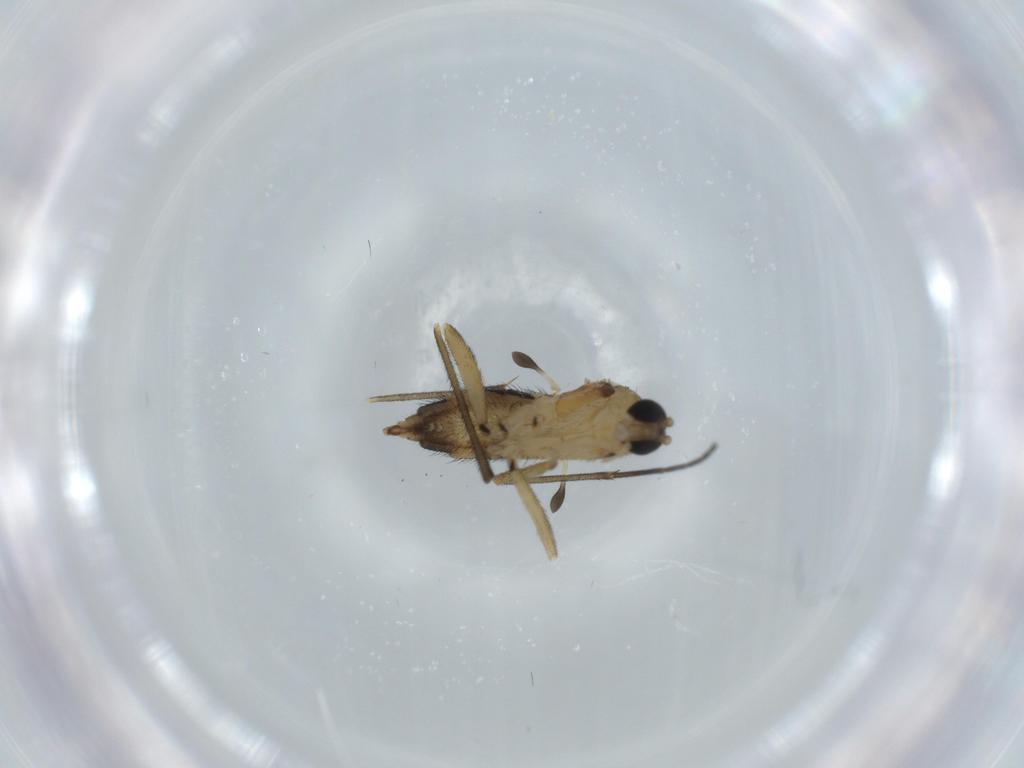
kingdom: Animalia
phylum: Arthropoda
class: Insecta
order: Diptera
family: Sciaridae
